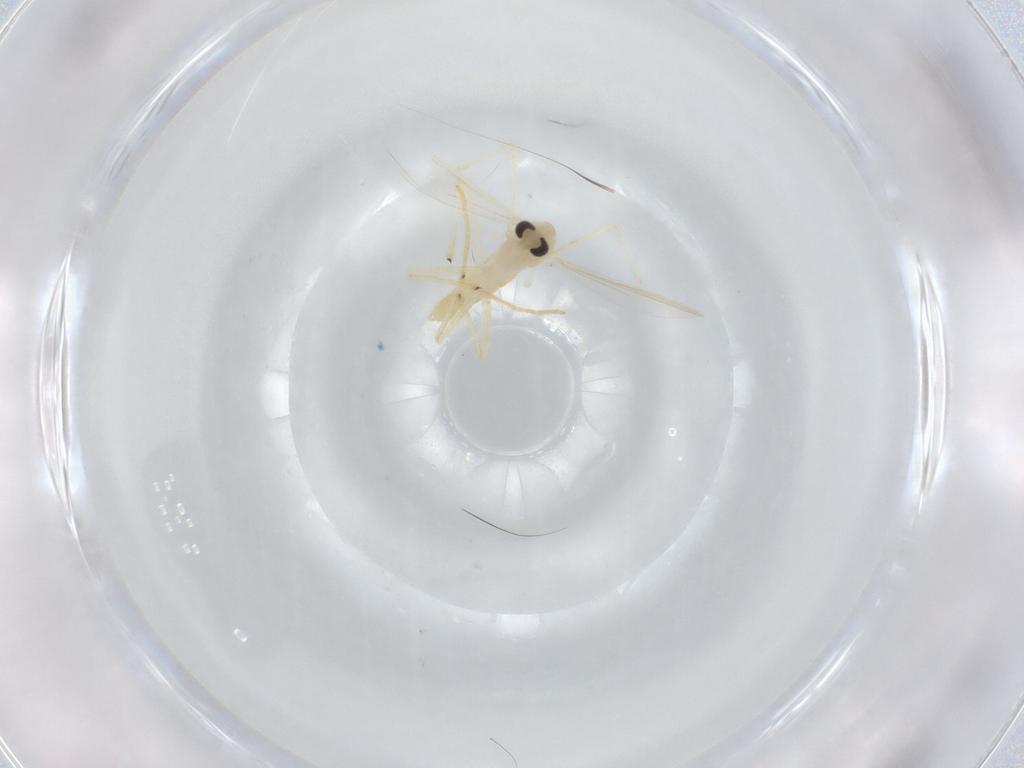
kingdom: Animalia
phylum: Arthropoda
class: Insecta
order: Diptera
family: Chironomidae
